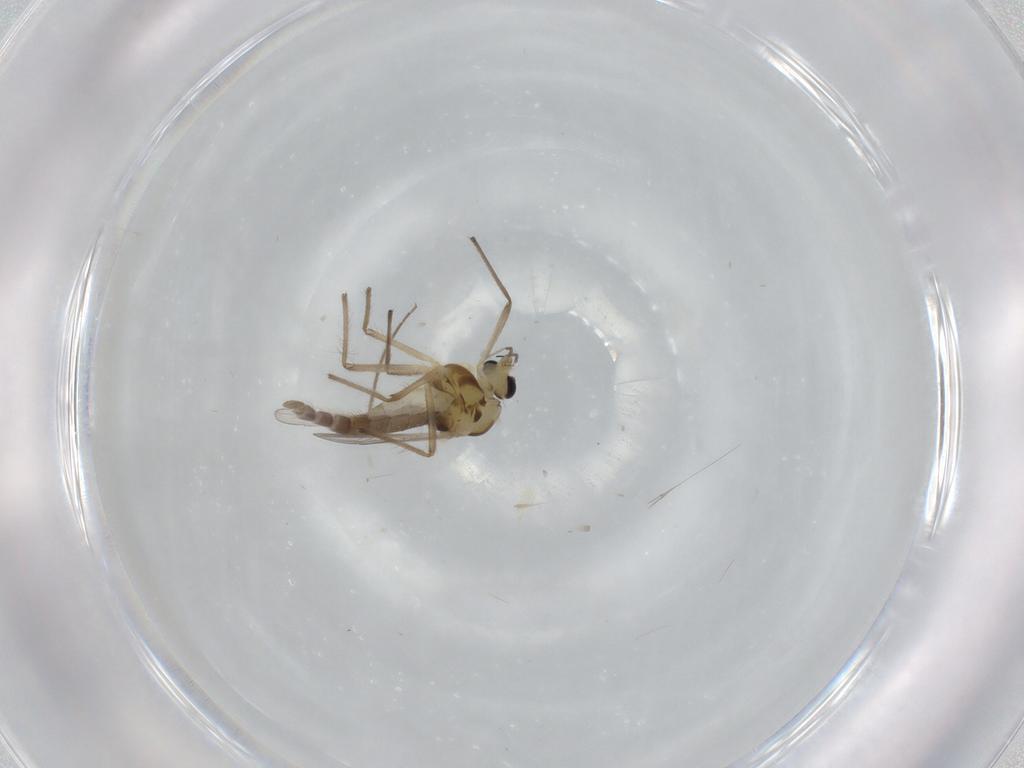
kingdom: Animalia
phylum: Arthropoda
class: Insecta
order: Diptera
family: Chironomidae
